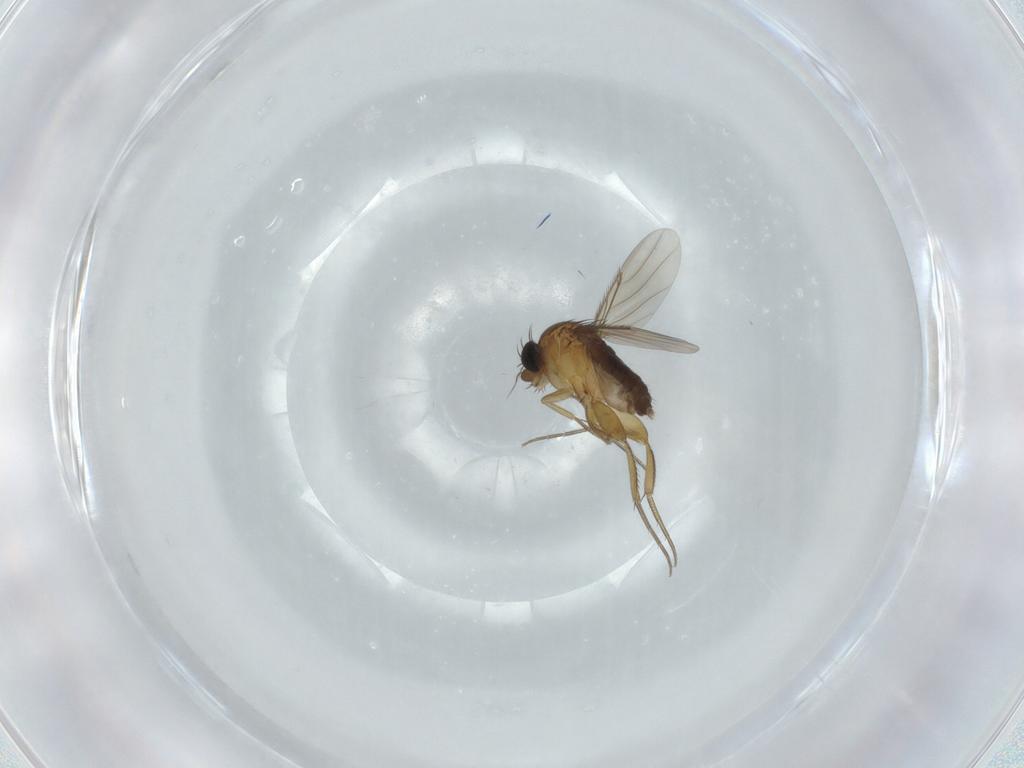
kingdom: Animalia
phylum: Arthropoda
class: Insecta
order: Diptera
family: Phoridae
